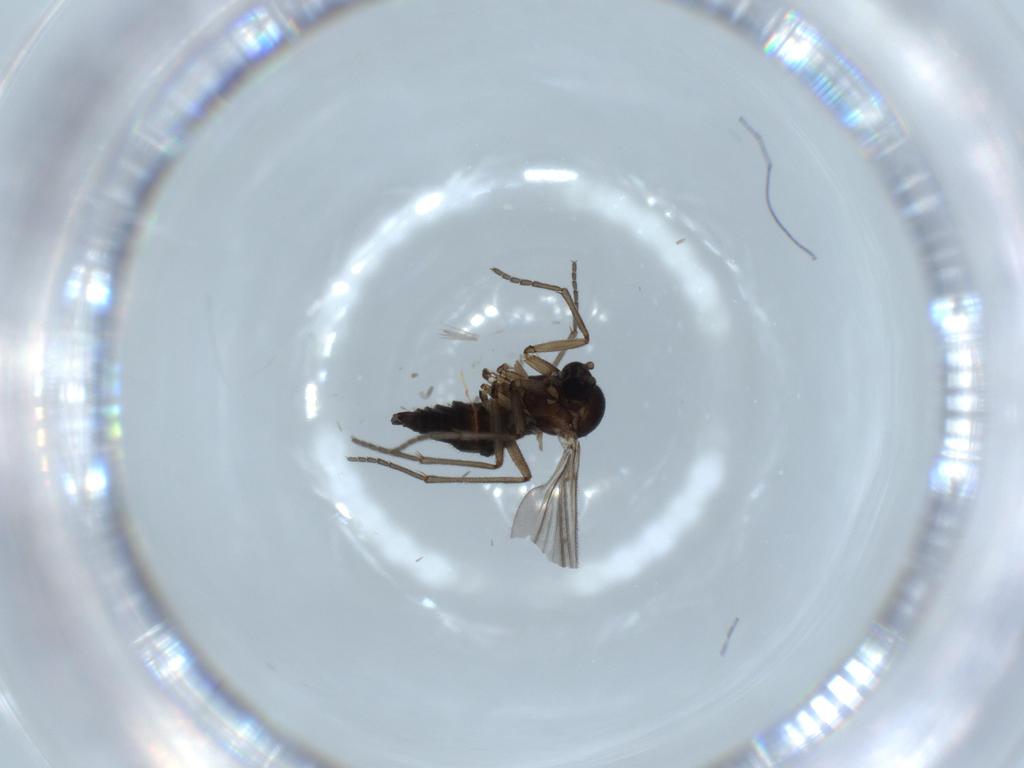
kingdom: Animalia
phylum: Arthropoda
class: Insecta
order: Diptera
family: Sciaridae
